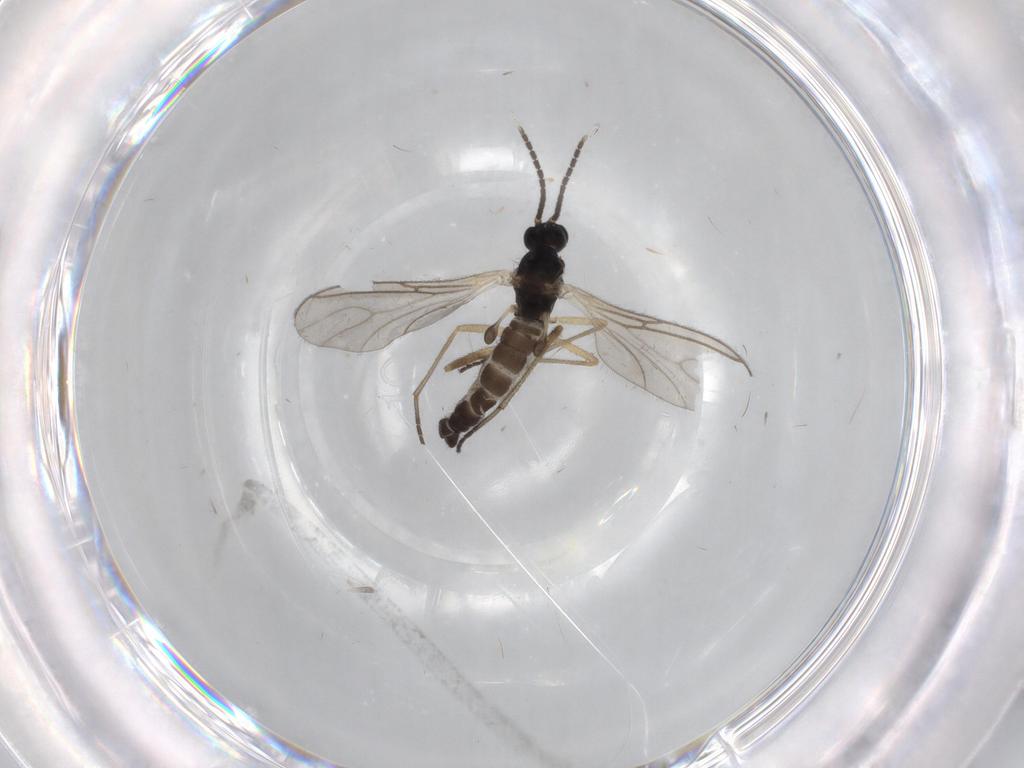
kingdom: Animalia
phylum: Arthropoda
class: Insecta
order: Diptera
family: Sciaridae
